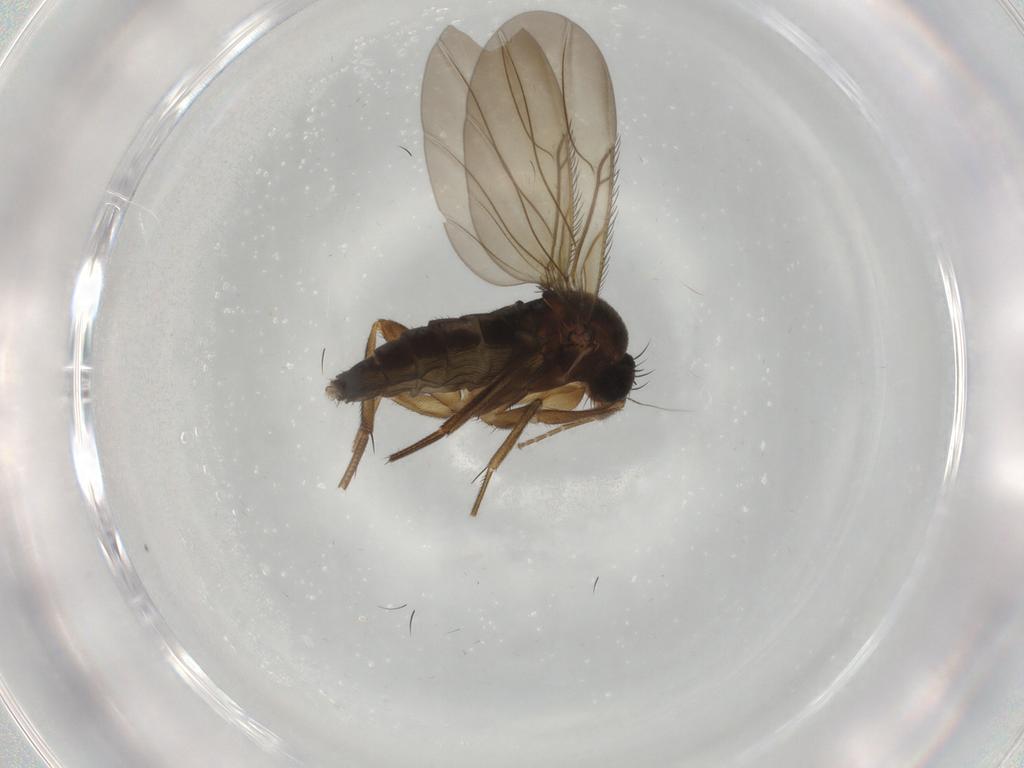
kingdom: Animalia
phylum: Arthropoda
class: Insecta
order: Diptera
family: Phoridae
